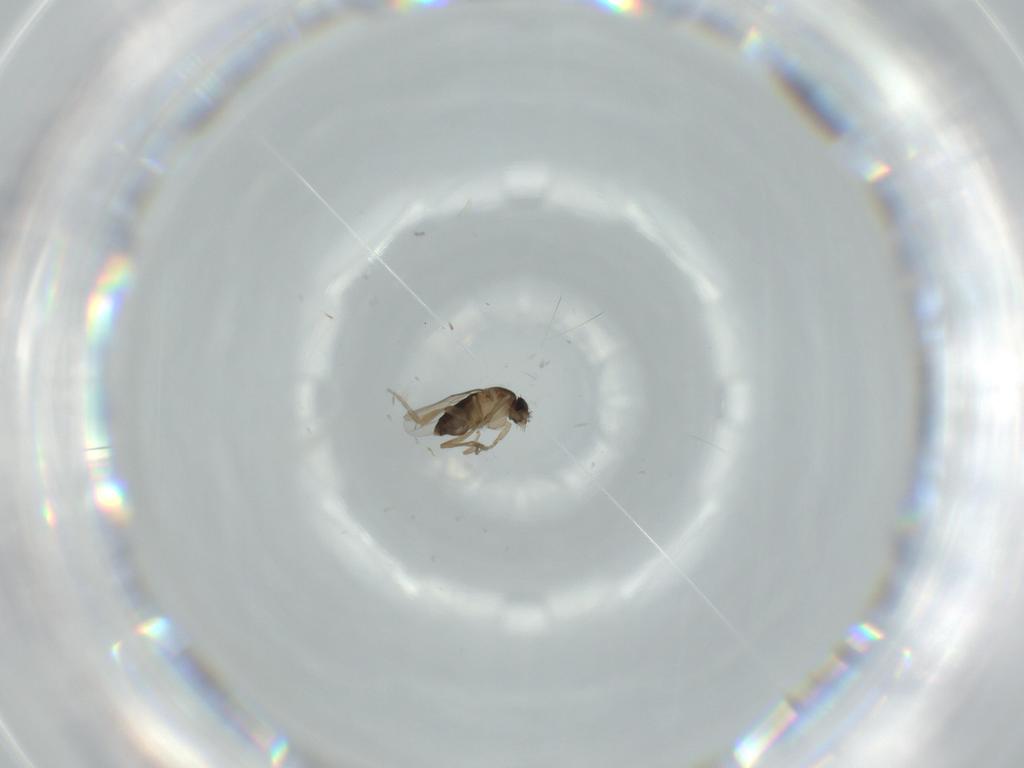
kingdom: Animalia
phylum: Arthropoda
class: Insecta
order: Diptera
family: Phoridae
